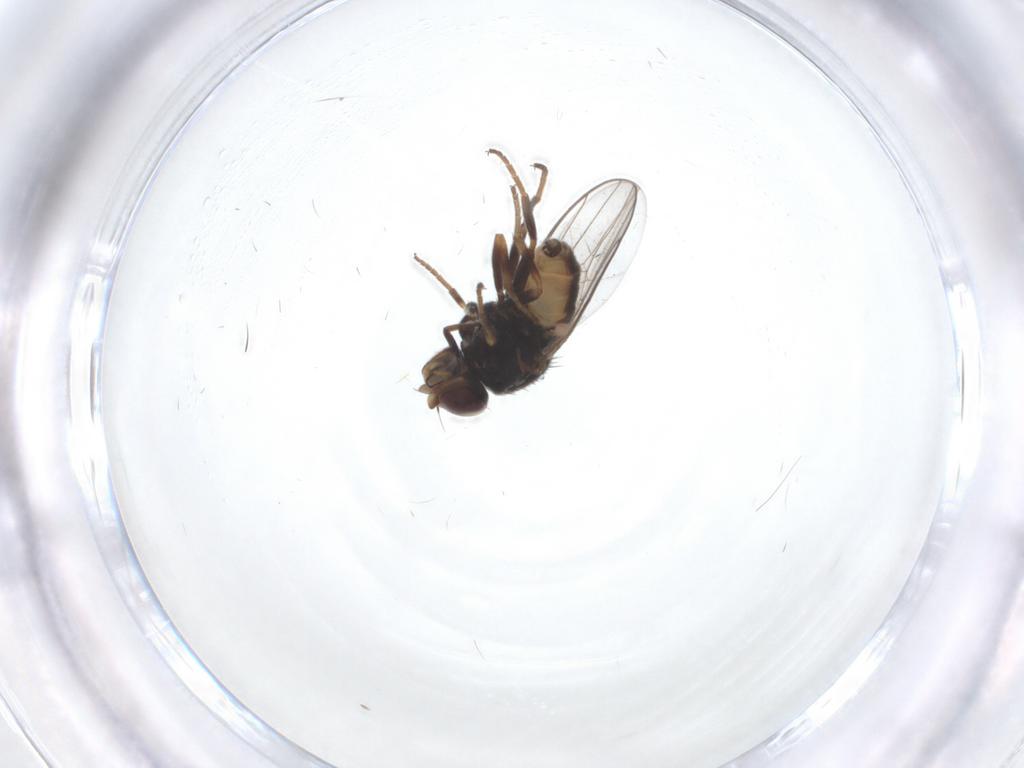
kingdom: Animalia
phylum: Arthropoda
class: Insecta
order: Diptera
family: Chloropidae
